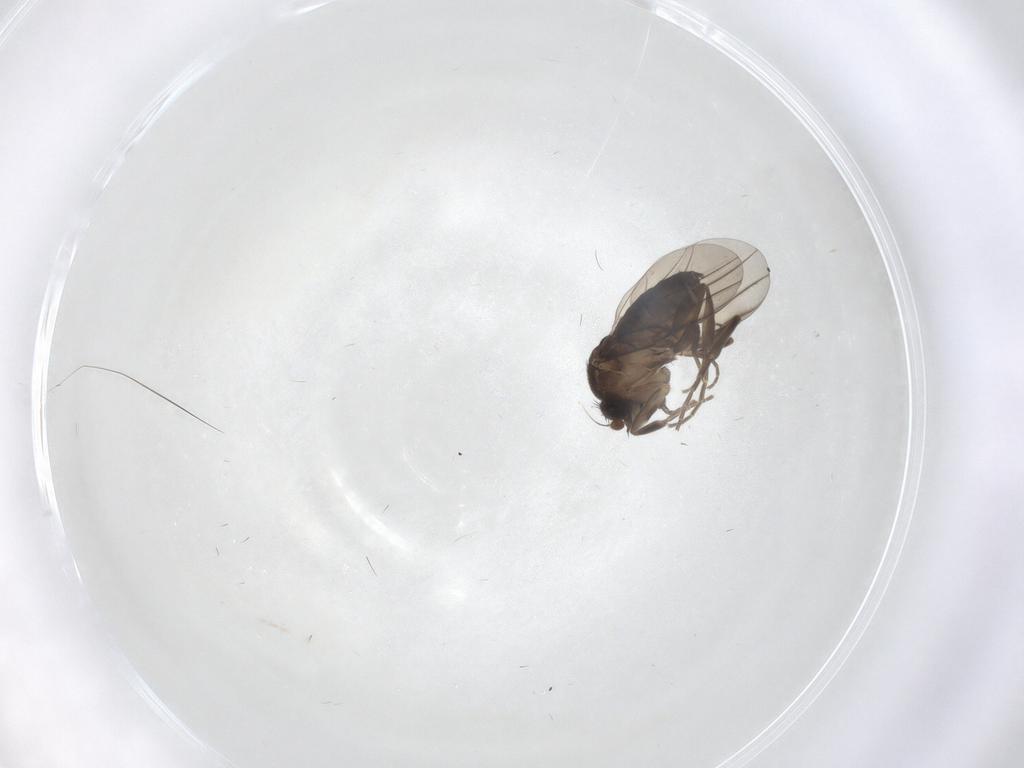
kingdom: Animalia
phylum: Arthropoda
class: Insecta
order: Diptera
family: Phoridae
